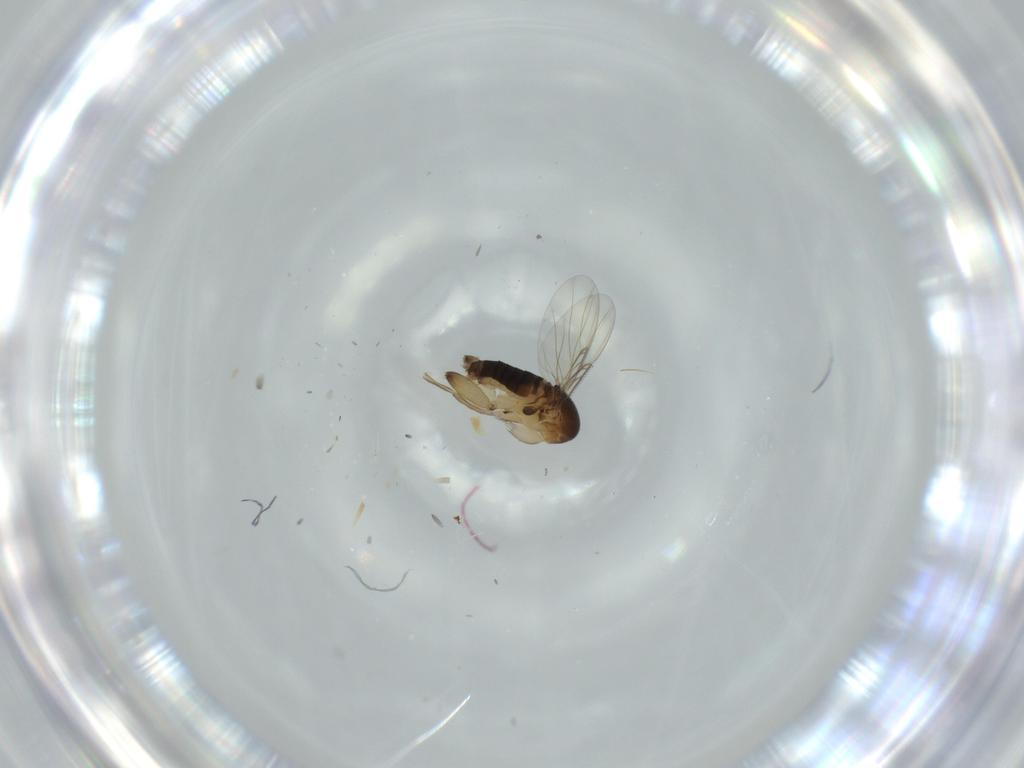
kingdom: Animalia
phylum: Arthropoda
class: Insecta
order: Diptera
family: Phoridae
